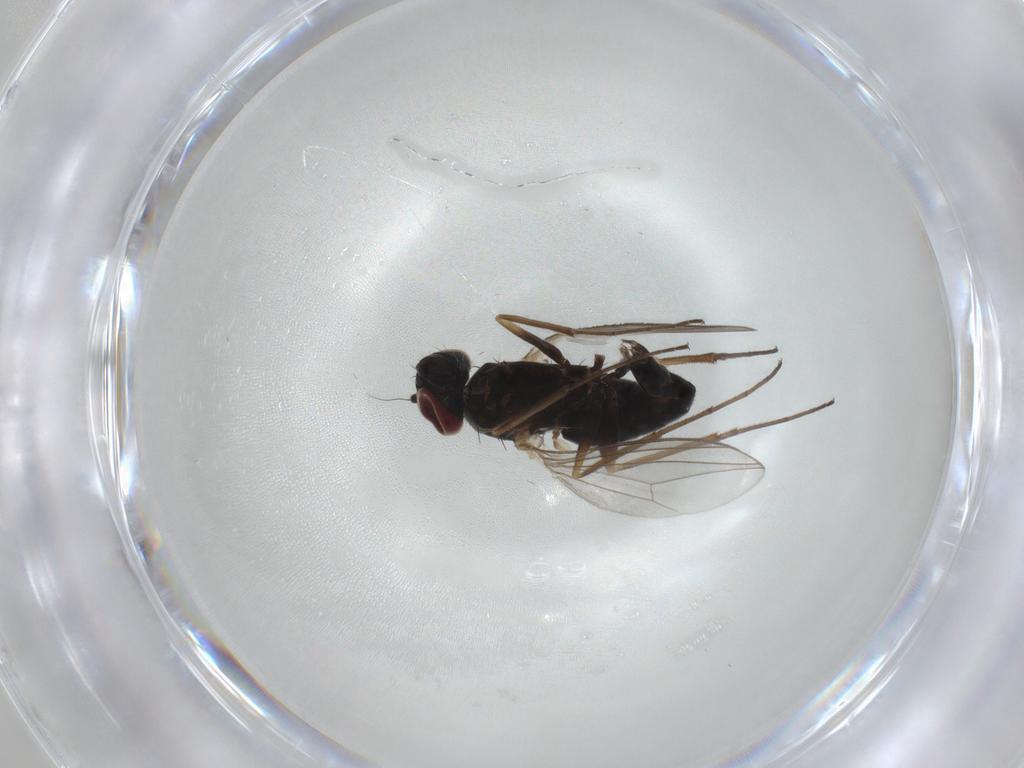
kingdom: Animalia
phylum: Arthropoda
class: Insecta
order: Diptera
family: Dolichopodidae
